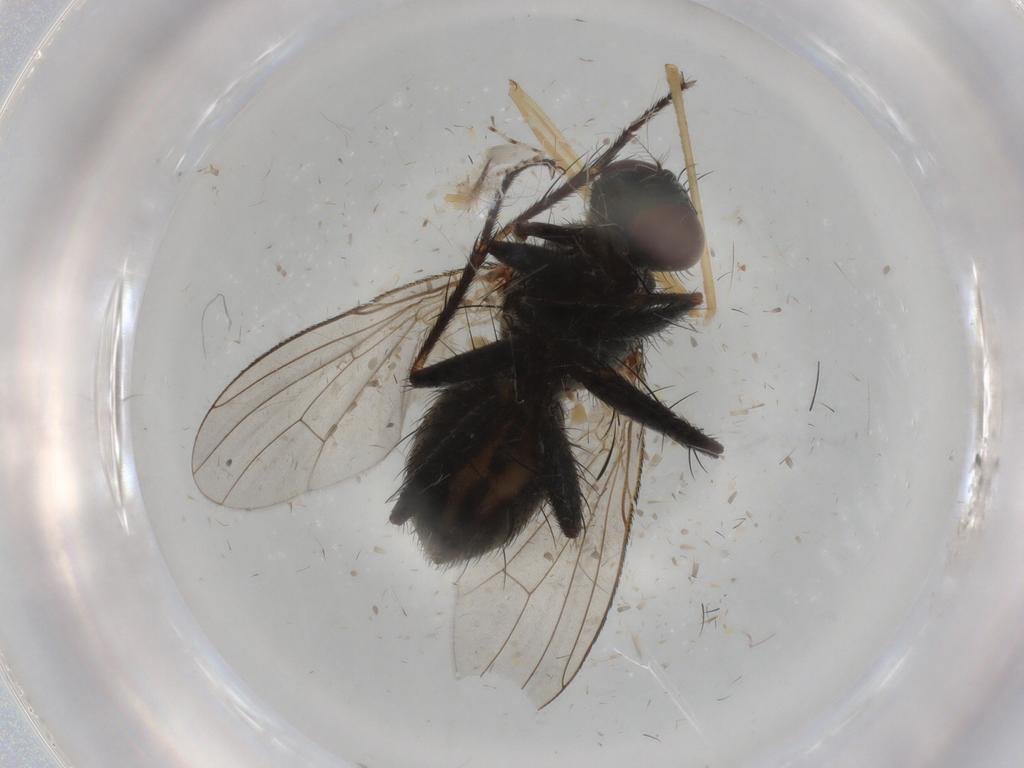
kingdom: Animalia
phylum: Arthropoda
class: Insecta
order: Diptera
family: Muscidae
